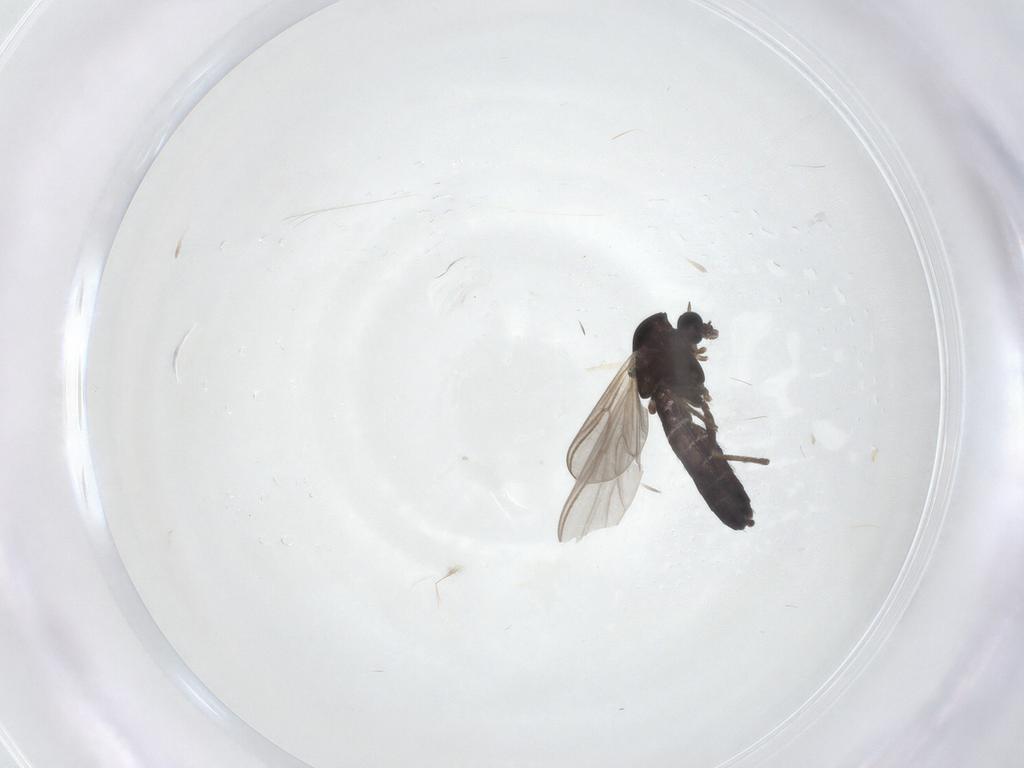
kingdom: Animalia
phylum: Arthropoda
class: Insecta
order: Diptera
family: Chironomidae
